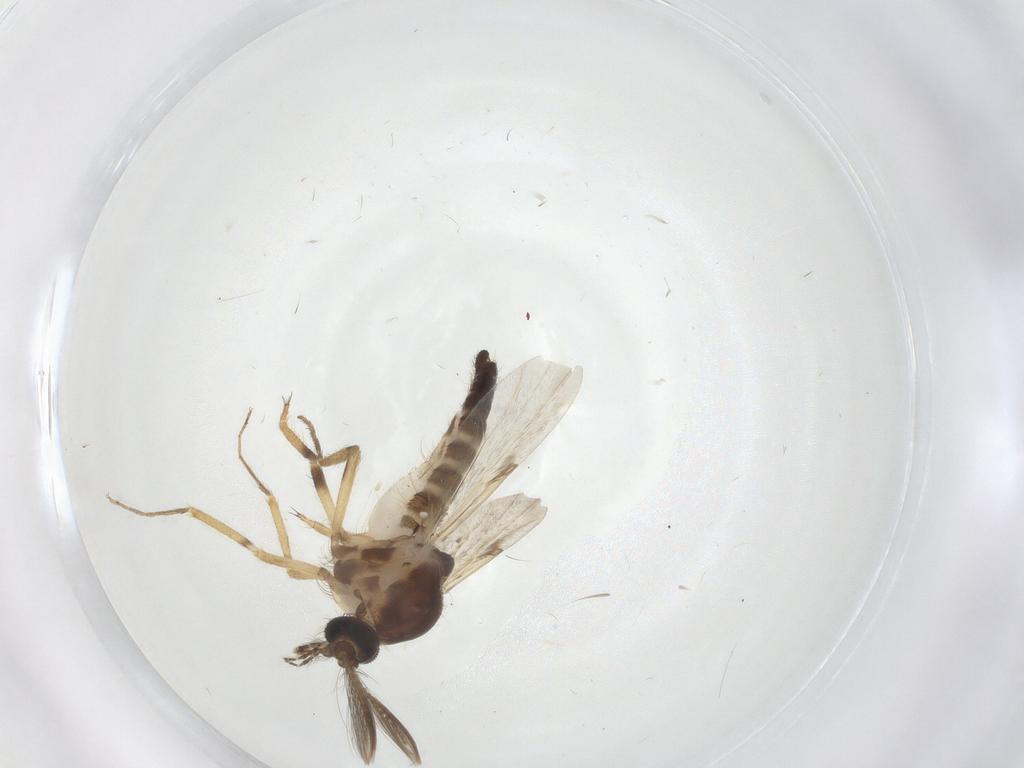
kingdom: Animalia
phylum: Arthropoda
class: Insecta
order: Diptera
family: Ceratopogonidae
